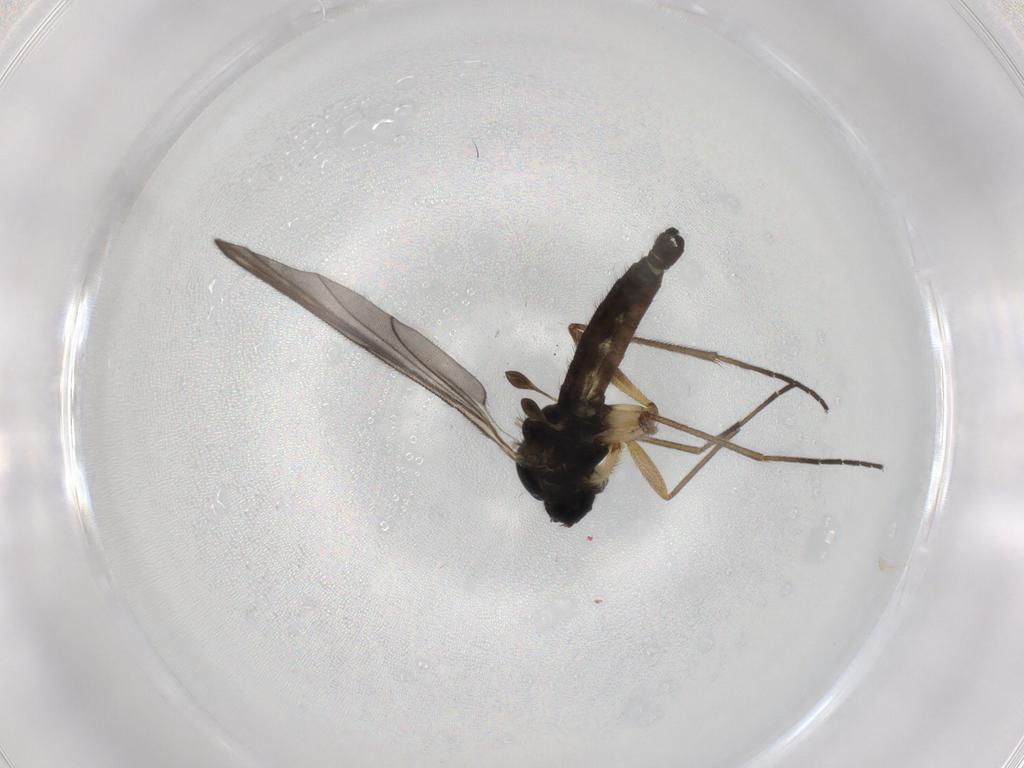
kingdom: Animalia
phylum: Arthropoda
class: Insecta
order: Diptera
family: Sciaridae
